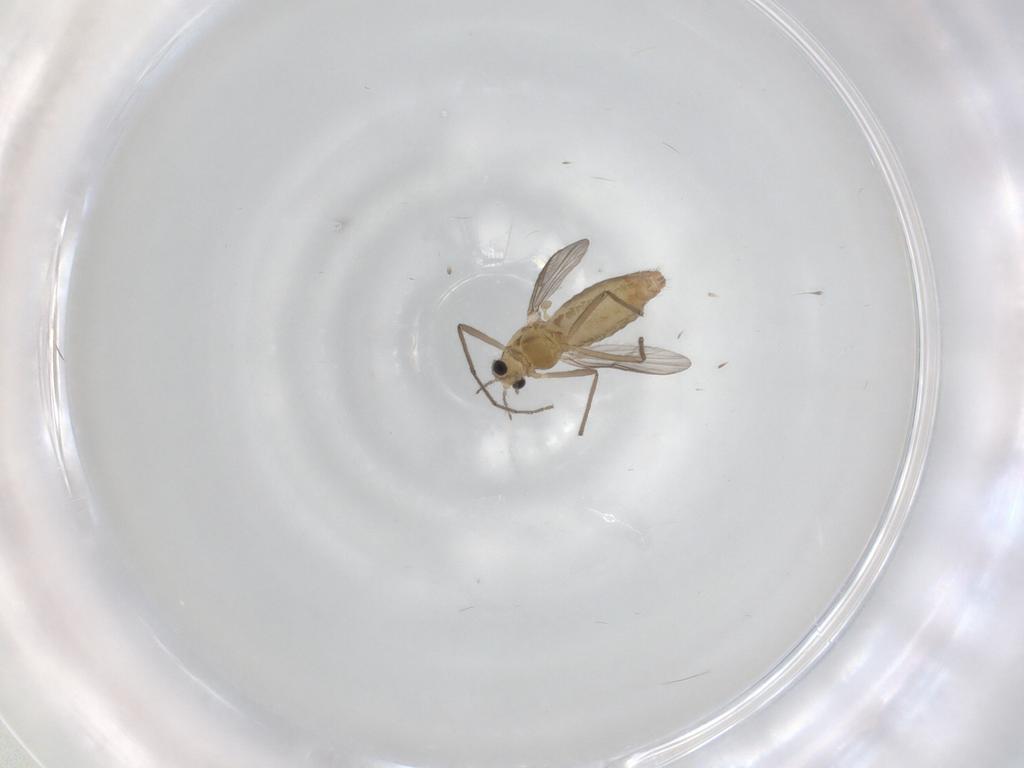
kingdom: Animalia
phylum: Arthropoda
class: Insecta
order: Diptera
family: Chironomidae
